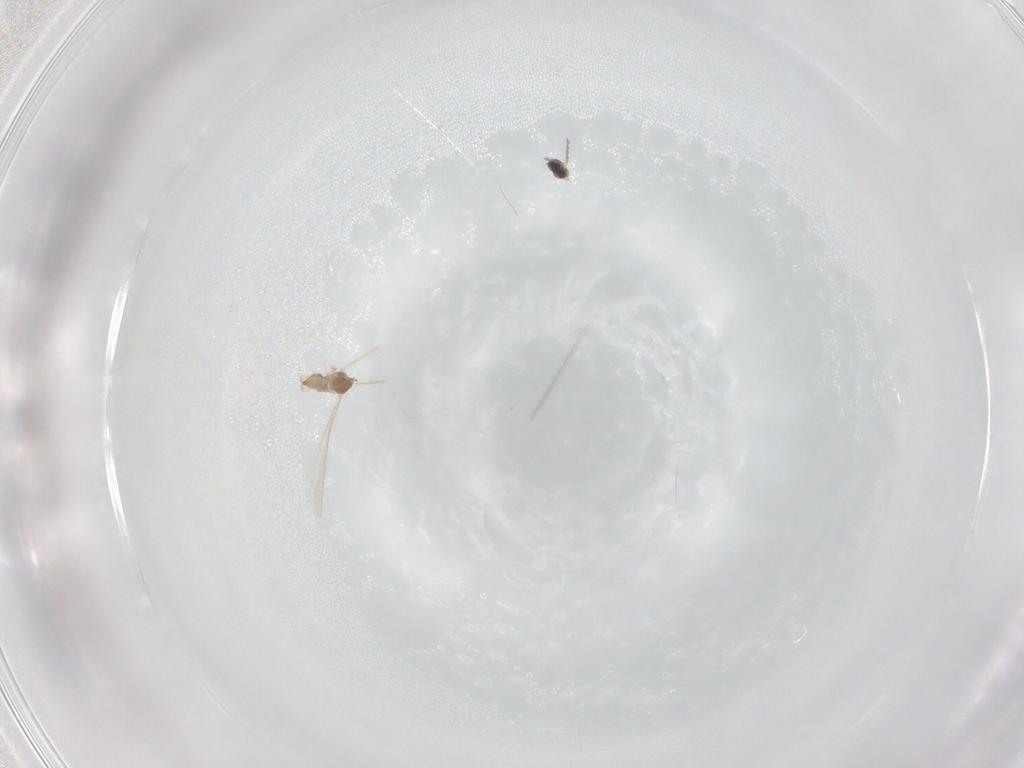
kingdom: Animalia
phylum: Arthropoda
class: Insecta
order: Diptera
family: Cecidomyiidae
